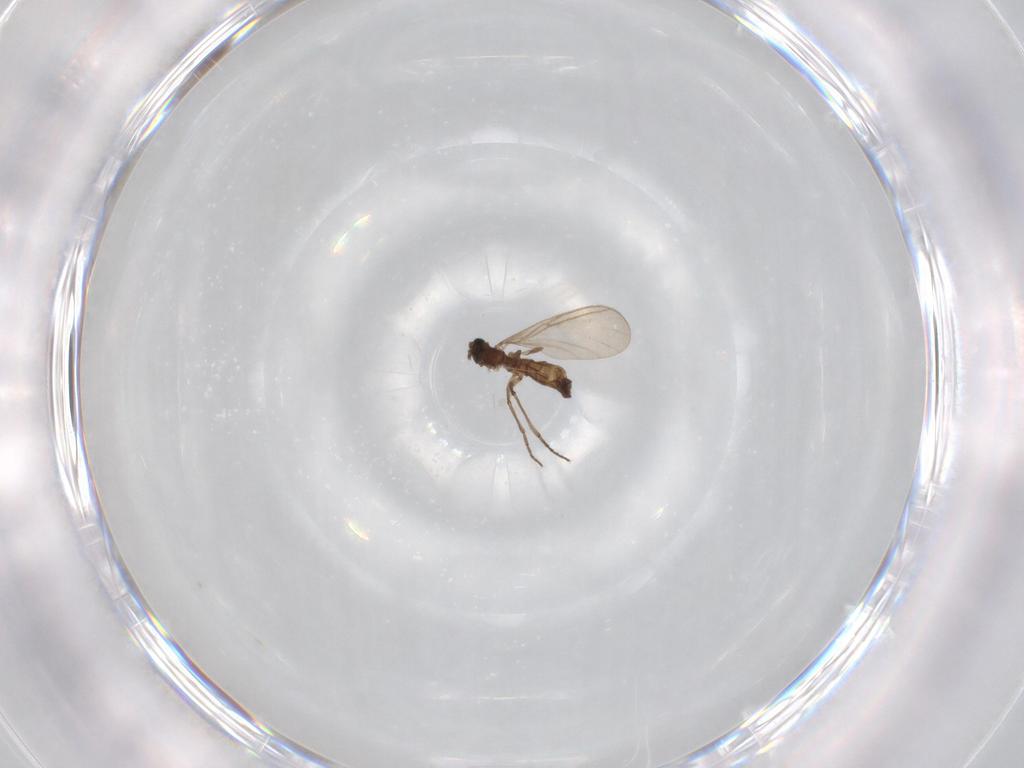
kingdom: Animalia
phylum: Arthropoda
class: Insecta
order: Diptera
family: Sciaridae
